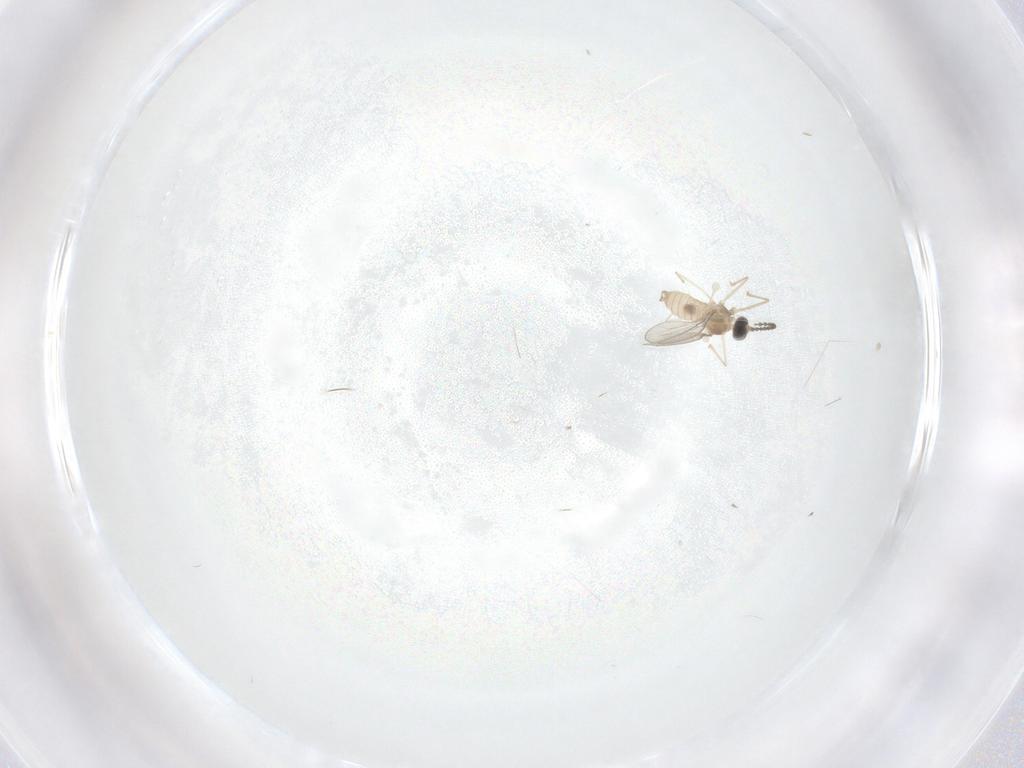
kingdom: Animalia
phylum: Arthropoda
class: Insecta
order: Diptera
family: Cecidomyiidae
